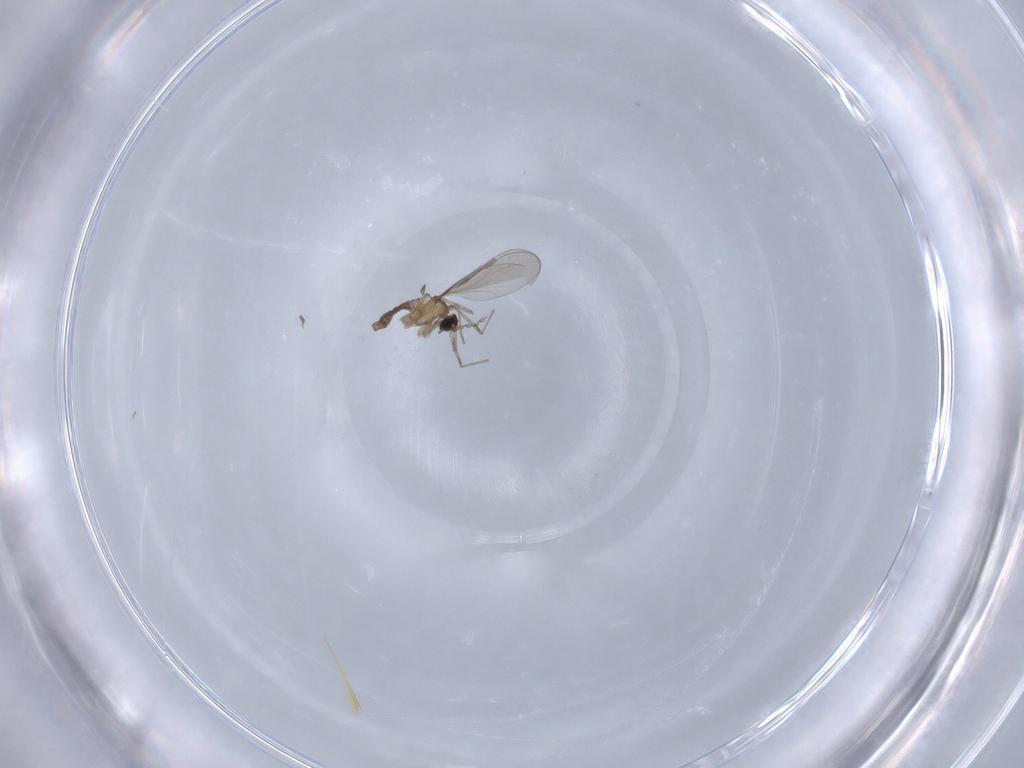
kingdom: Animalia
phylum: Arthropoda
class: Insecta
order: Diptera
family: Cecidomyiidae
